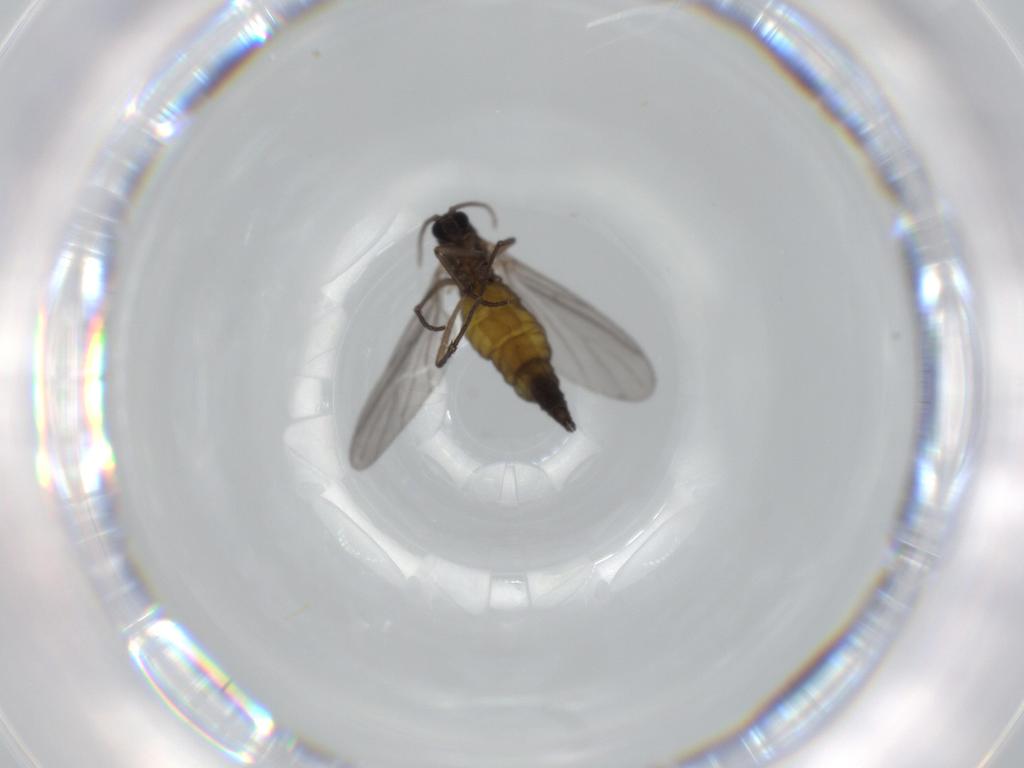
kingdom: Animalia
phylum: Arthropoda
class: Insecta
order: Diptera
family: Sciaridae
